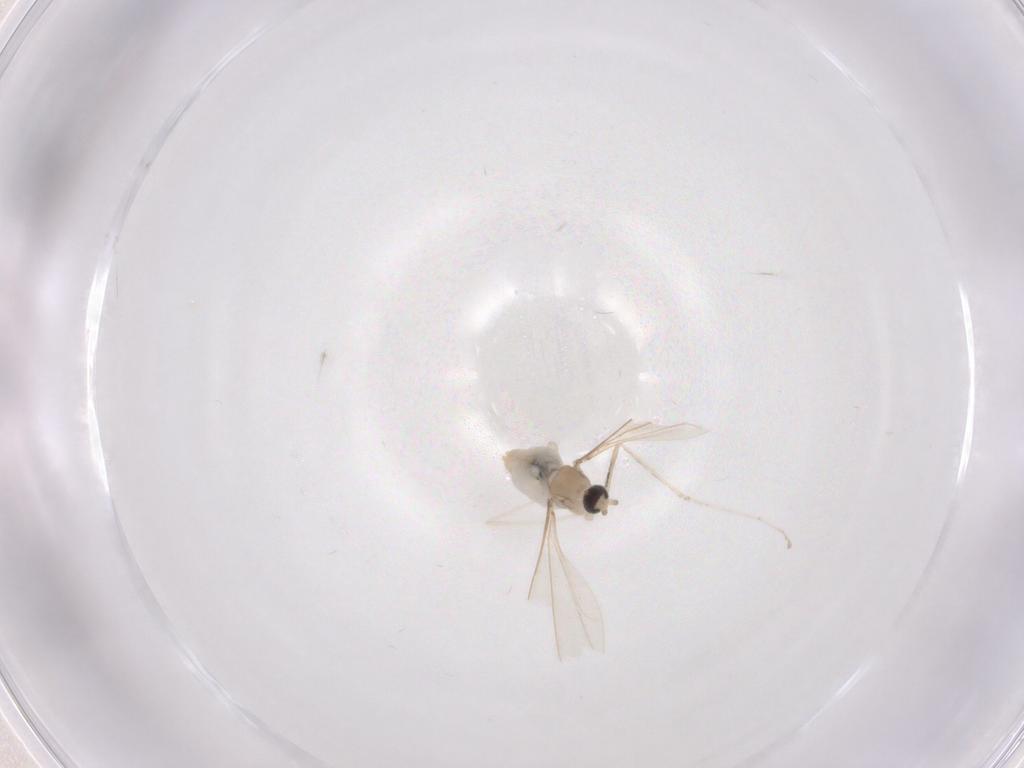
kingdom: Animalia
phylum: Arthropoda
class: Insecta
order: Diptera
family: Cecidomyiidae
